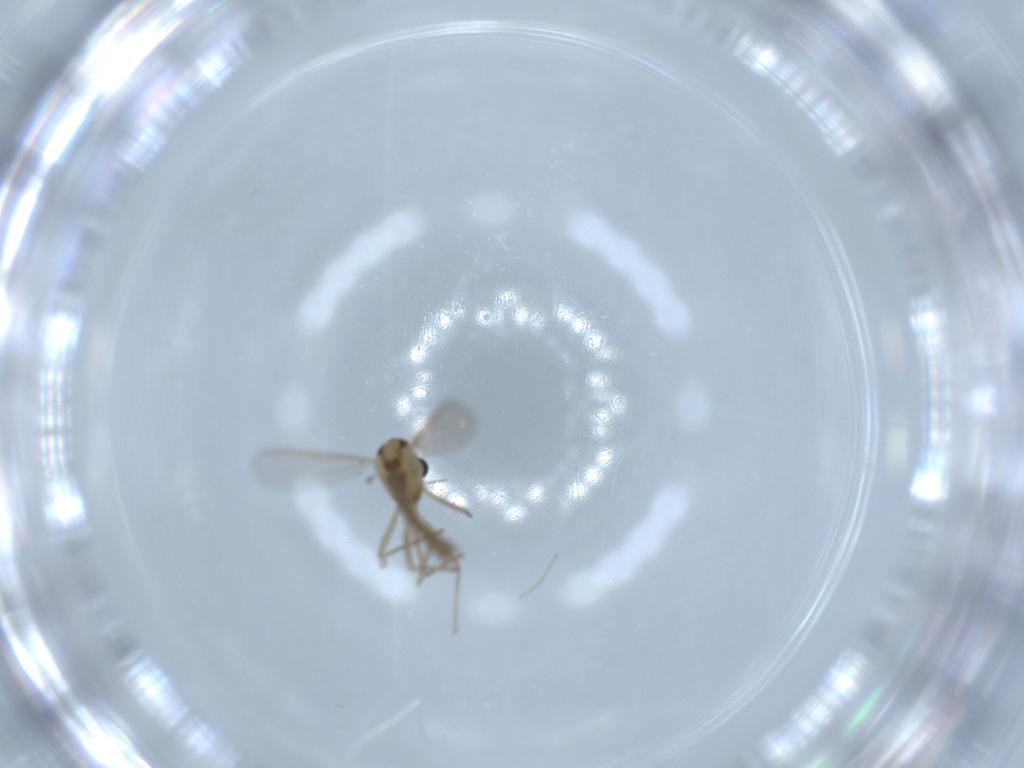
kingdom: Animalia
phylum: Arthropoda
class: Insecta
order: Diptera
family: Chironomidae
